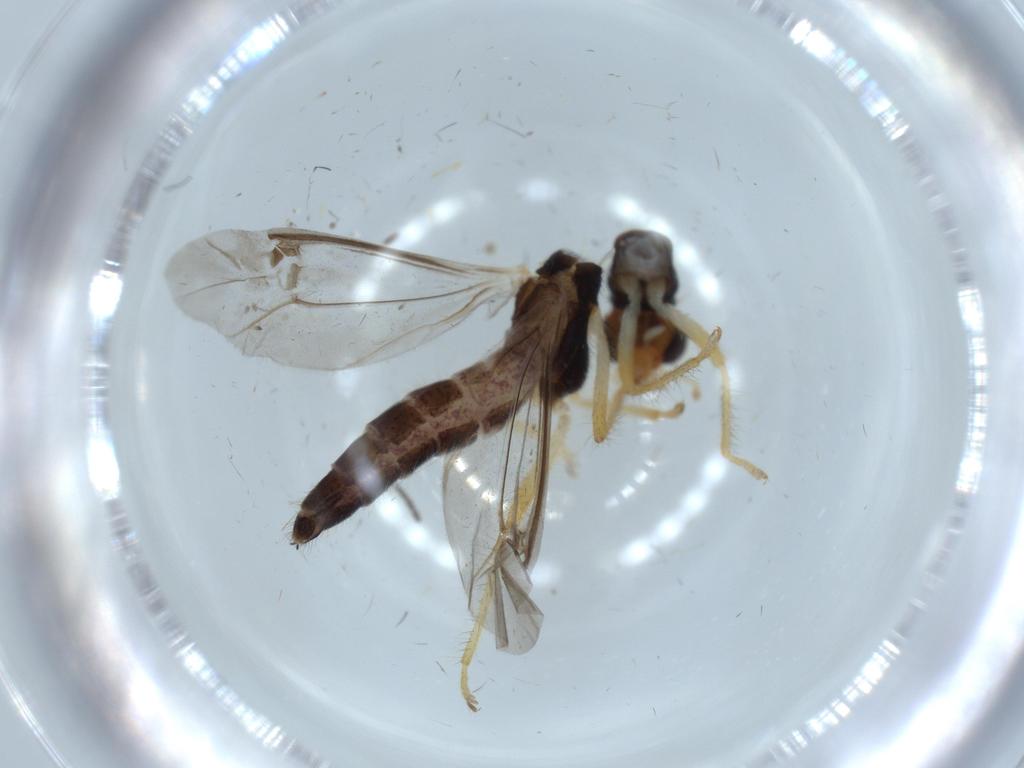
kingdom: Animalia
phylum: Arthropoda
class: Insecta
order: Diptera
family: Sciaridae
